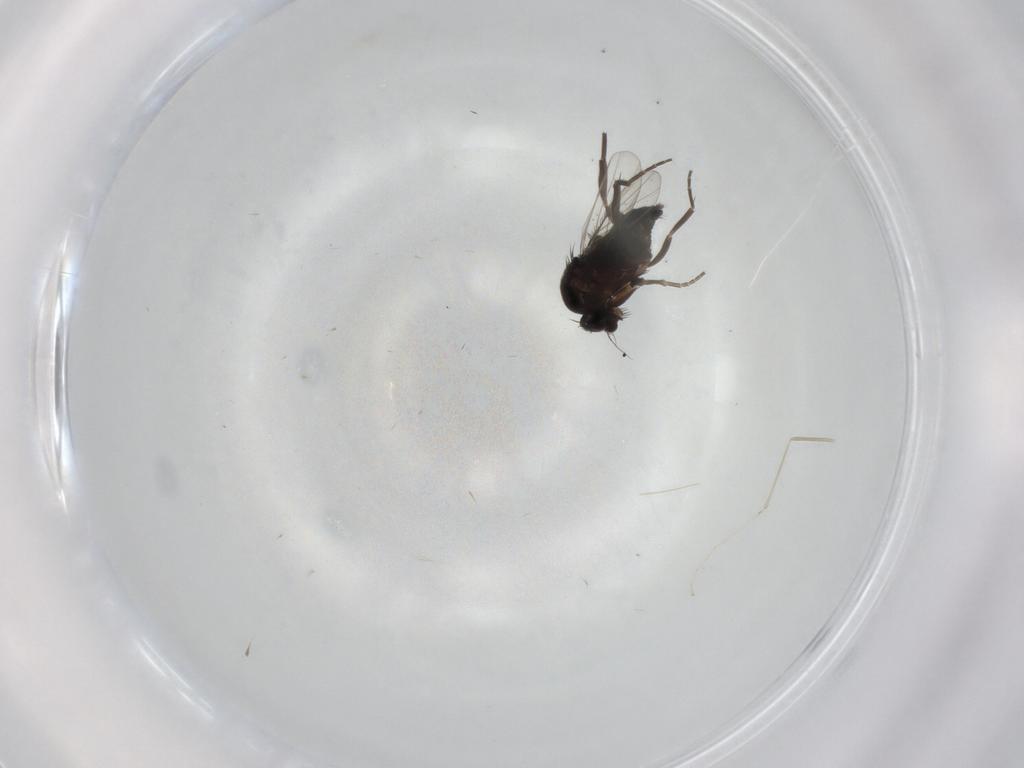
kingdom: Animalia
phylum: Arthropoda
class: Insecta
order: Diptera
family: Phoridae
